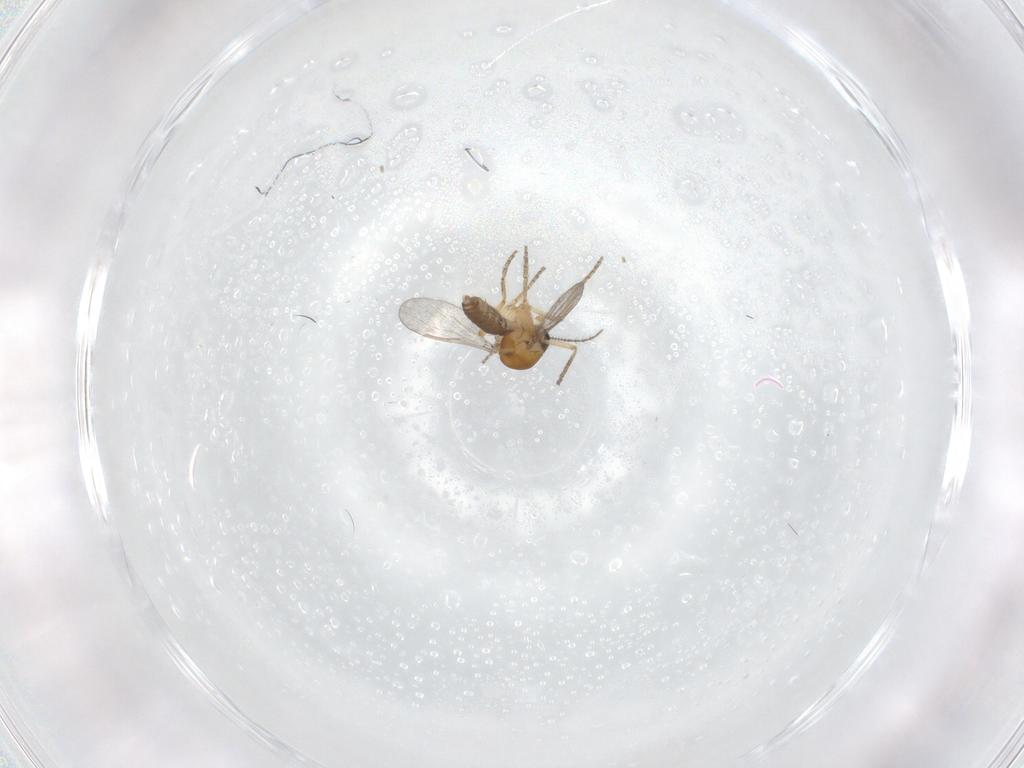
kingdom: Animalia
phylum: Arthropoda
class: Insecta
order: Diptera
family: Ceratopogonidae
